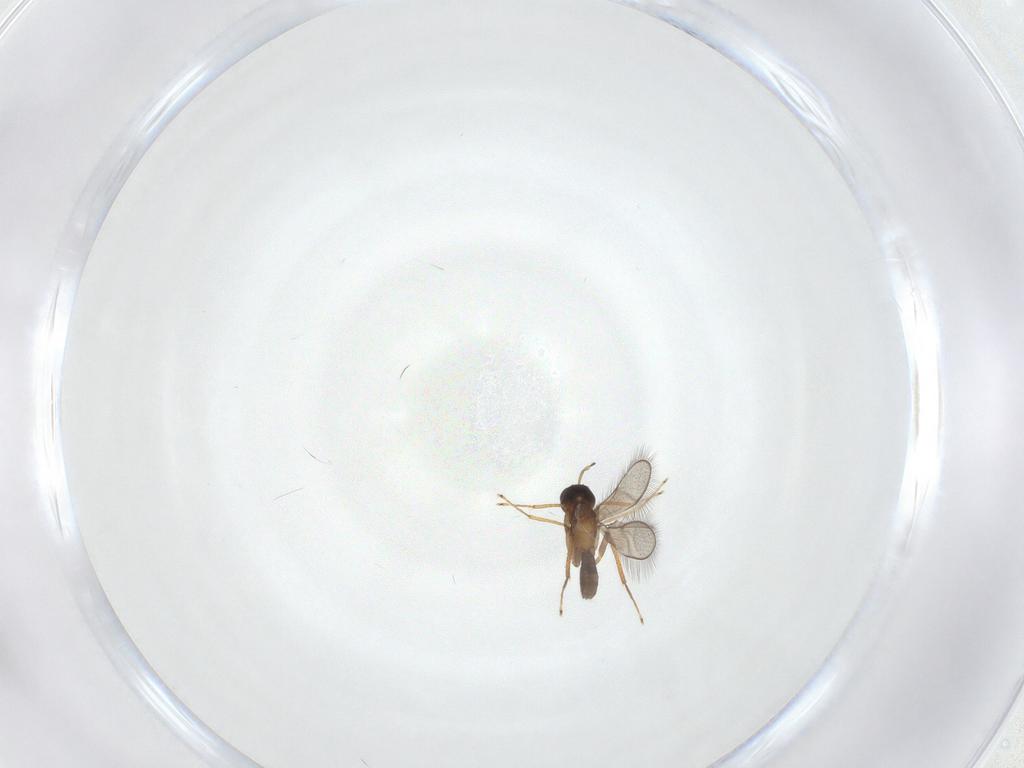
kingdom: Animalia
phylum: Arthropoda
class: Insecta
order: Hymenoptera
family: Mymaridae
